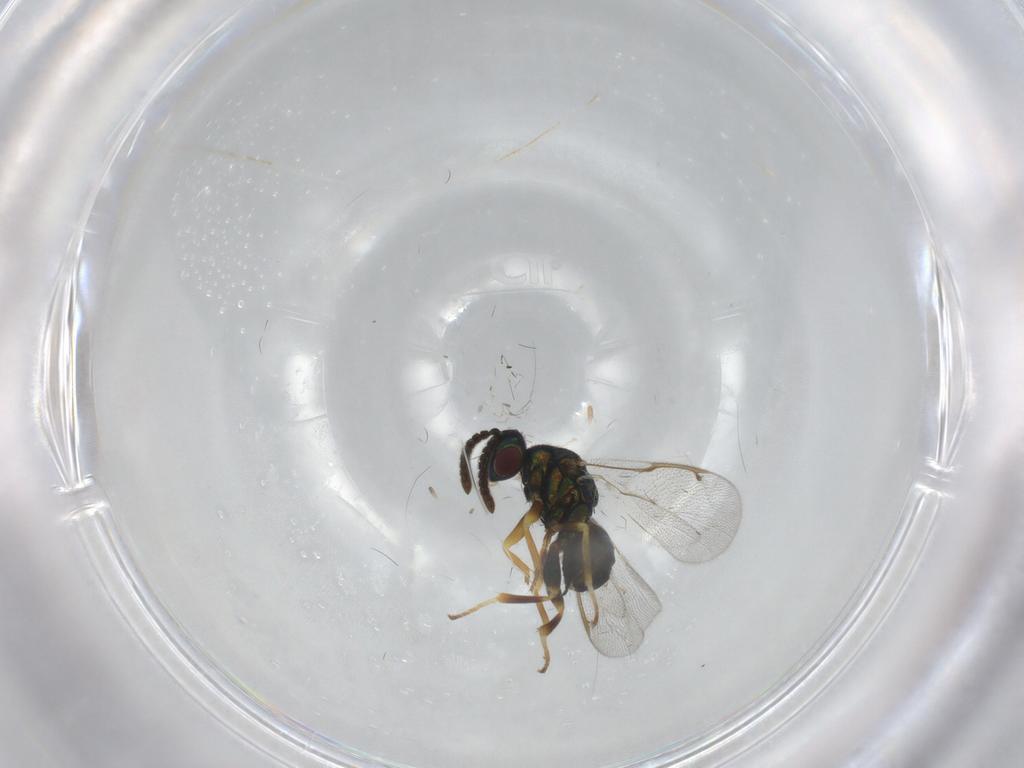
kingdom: Animalia
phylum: Arthropoda
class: Insecta
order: Hymenoptera
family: Torymidae
